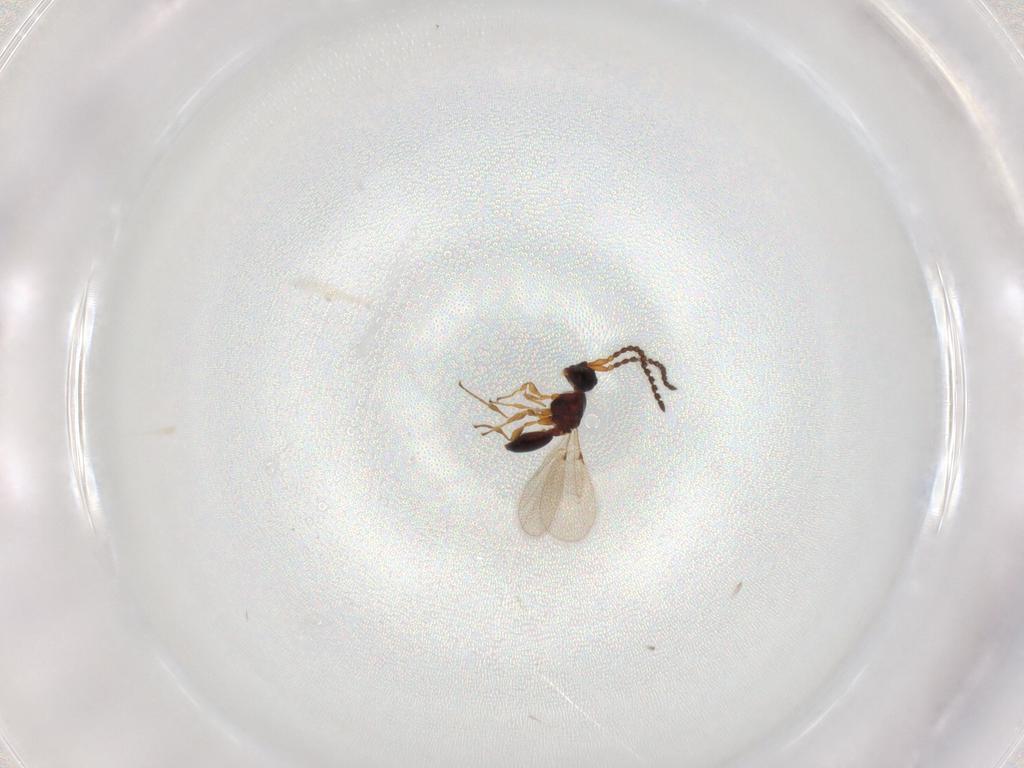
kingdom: Animalia
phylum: Arthropoda
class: Insecta
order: Hymenoptera
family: Diapriidae
